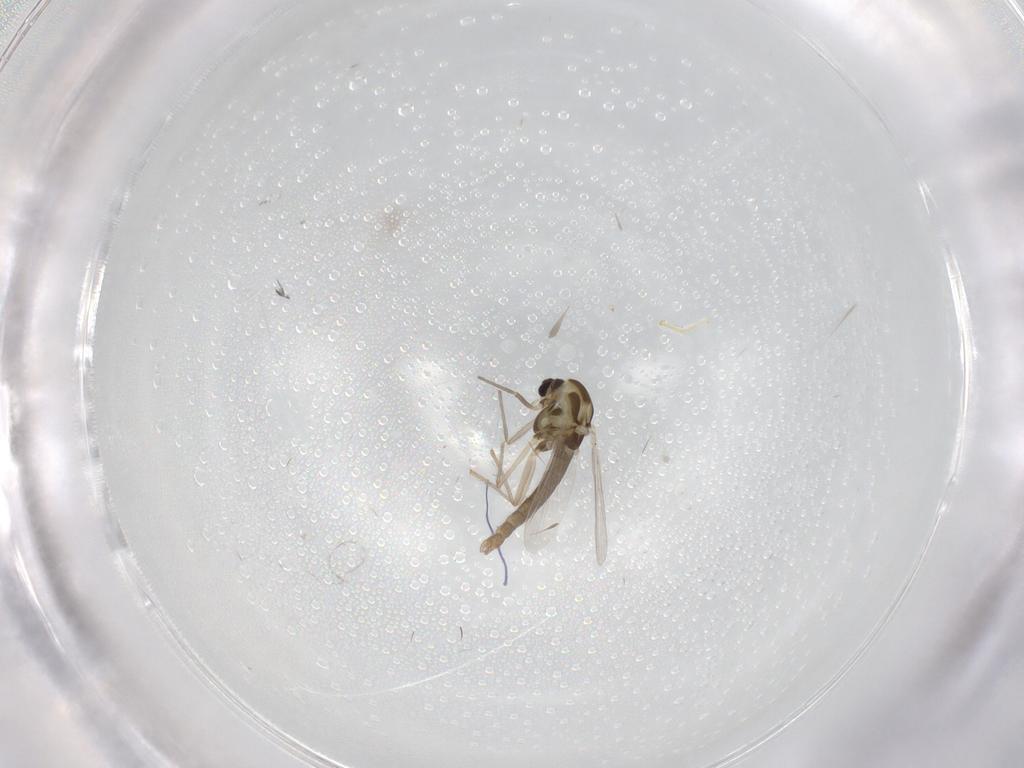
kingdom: Animalia
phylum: Arthropoda
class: Insecta
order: Diptera
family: Chironomidae
